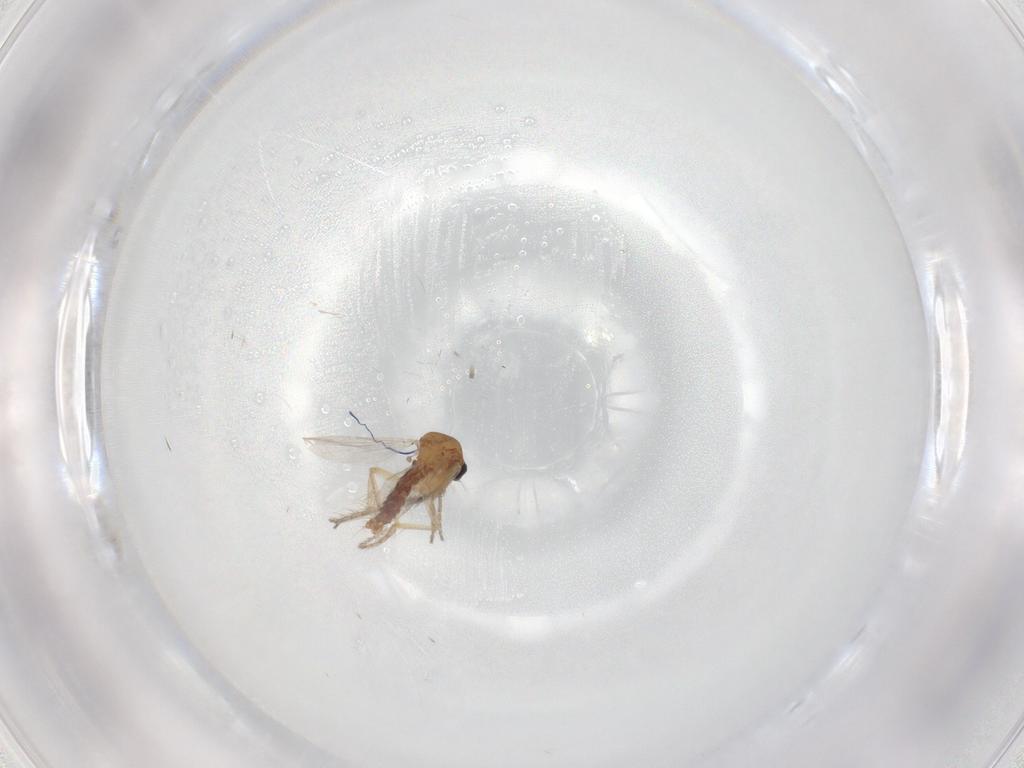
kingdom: Animalia
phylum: Arthropoda
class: Insecta
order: Diptera
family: Ceratopogonidae
